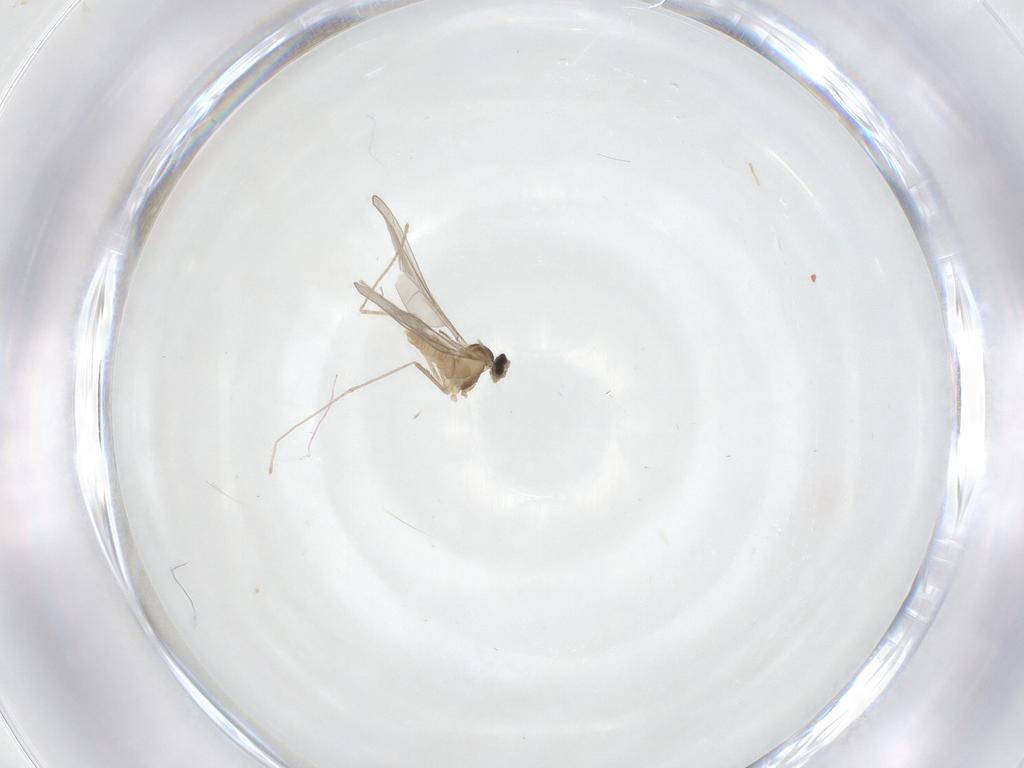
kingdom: Animalia
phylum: Arthropoda
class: Insecta
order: Diptera
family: Cecidomyiidae
